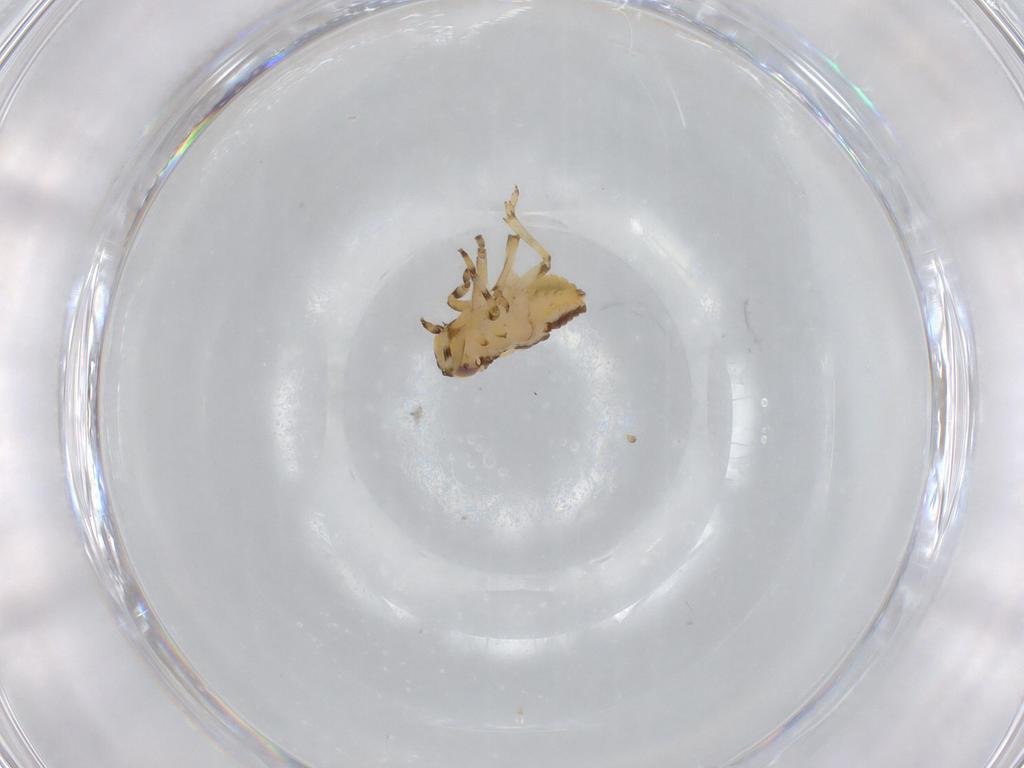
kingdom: Animalia
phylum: Arthropoda
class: Insecta
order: Hemiptera
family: Issidae
